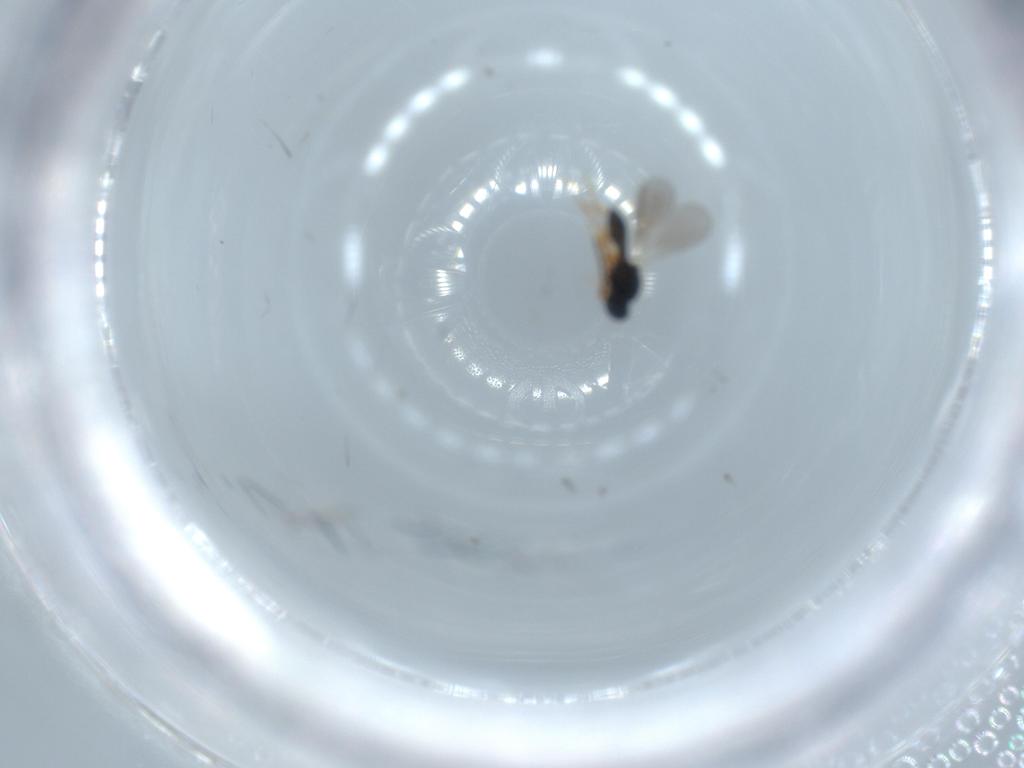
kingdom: Animalia
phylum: Arthropoda
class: Insecta
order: Hymenoptera
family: Platygastridae
